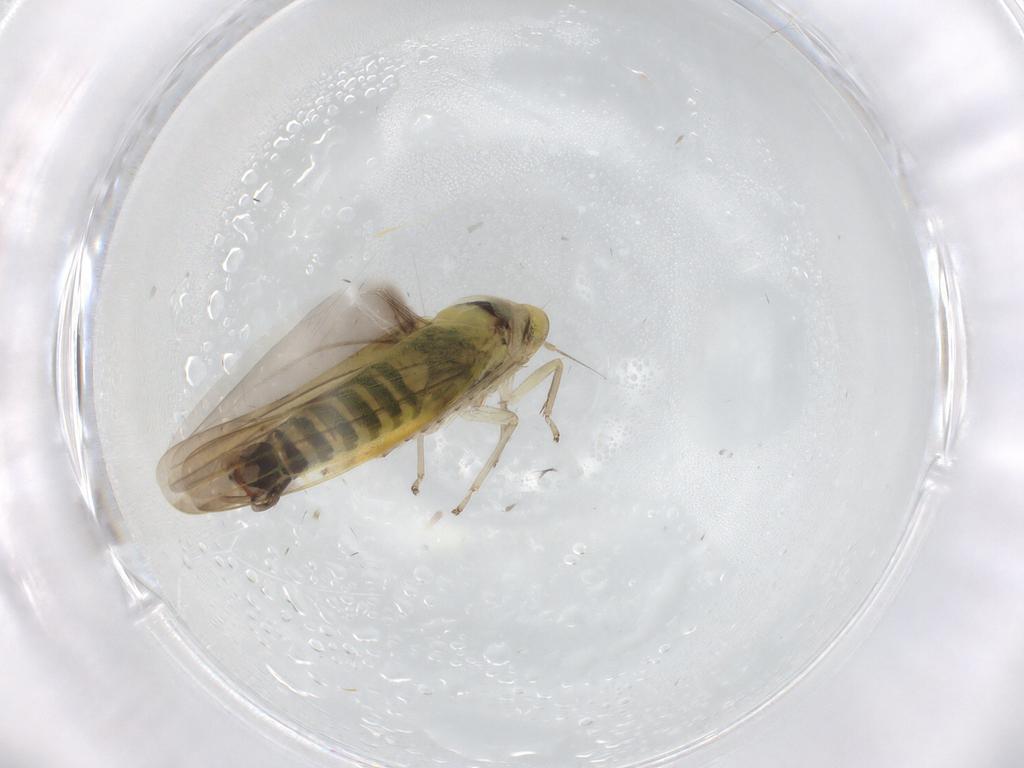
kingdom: Animalia
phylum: Arthropoda
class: Insecta
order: Hemiptera
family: Cicadellidae
